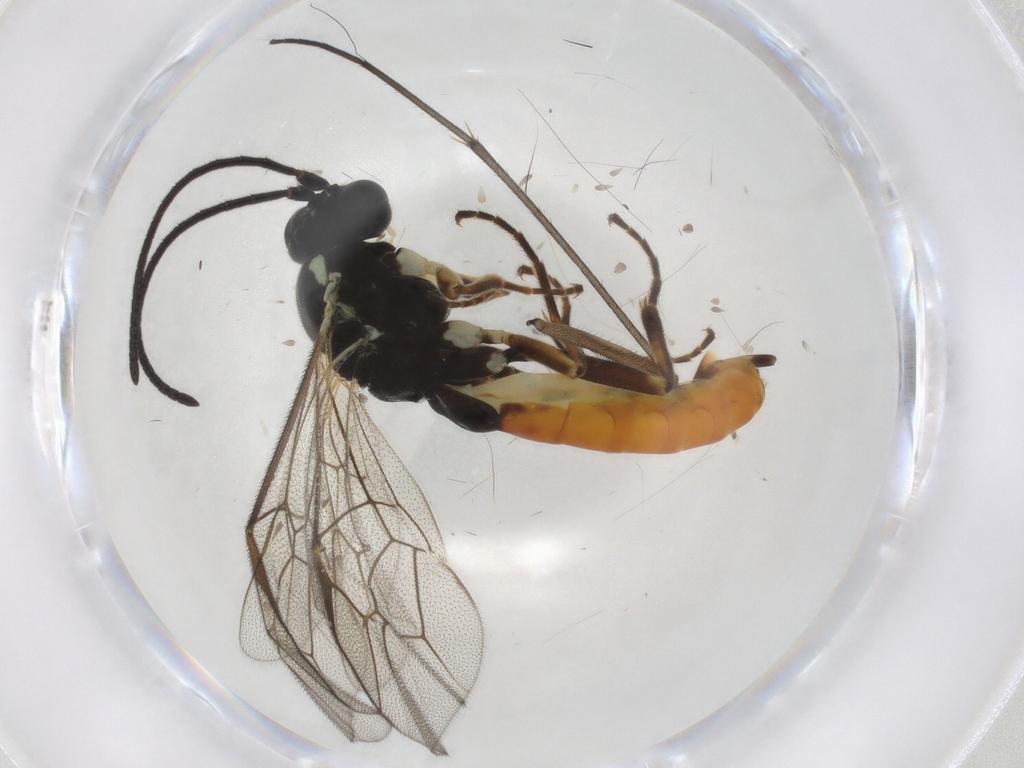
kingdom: Animalia
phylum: Arthropoda
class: Insecta
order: Hymenoptera
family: Ichneumonidae
